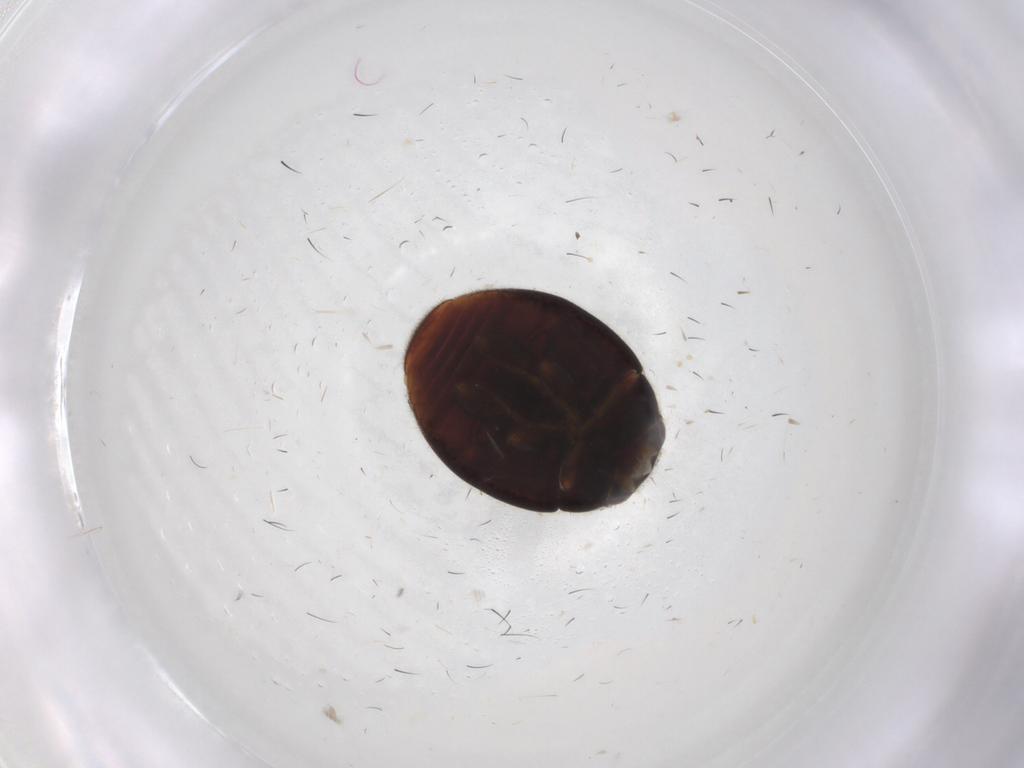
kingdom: Animalia
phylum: Arthropoda
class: Insecta
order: Coleoptera
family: Coccinellidae
